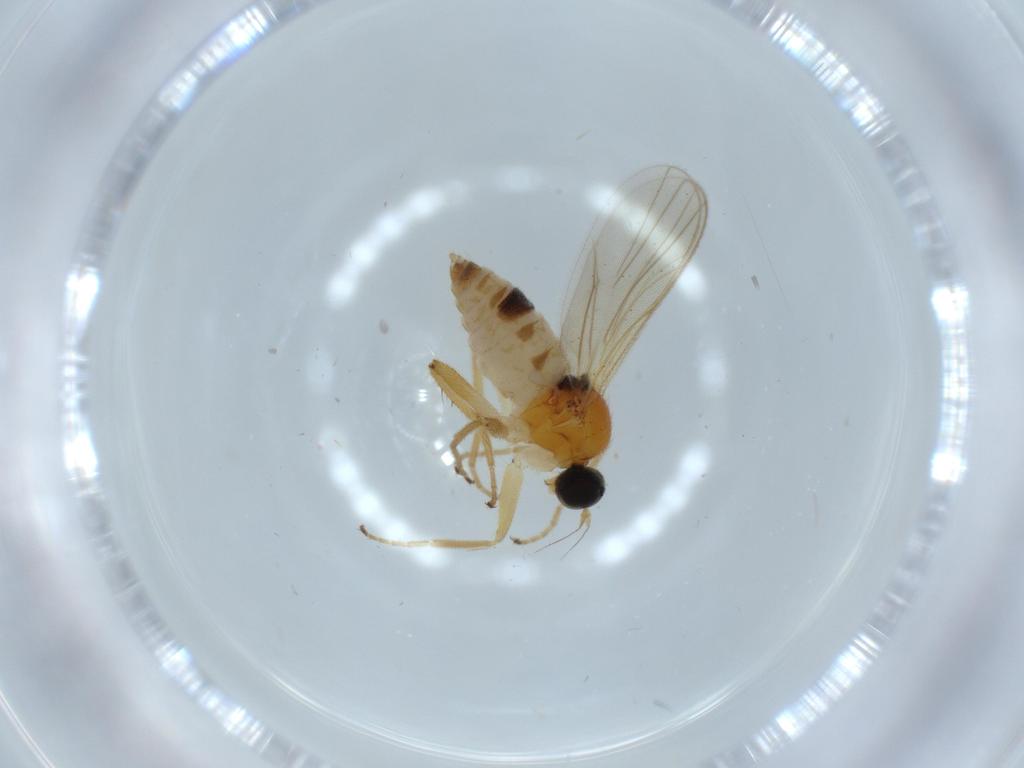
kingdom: Animalia
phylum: Arthropoda
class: Insecta
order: Diptera
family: Hybotidae
